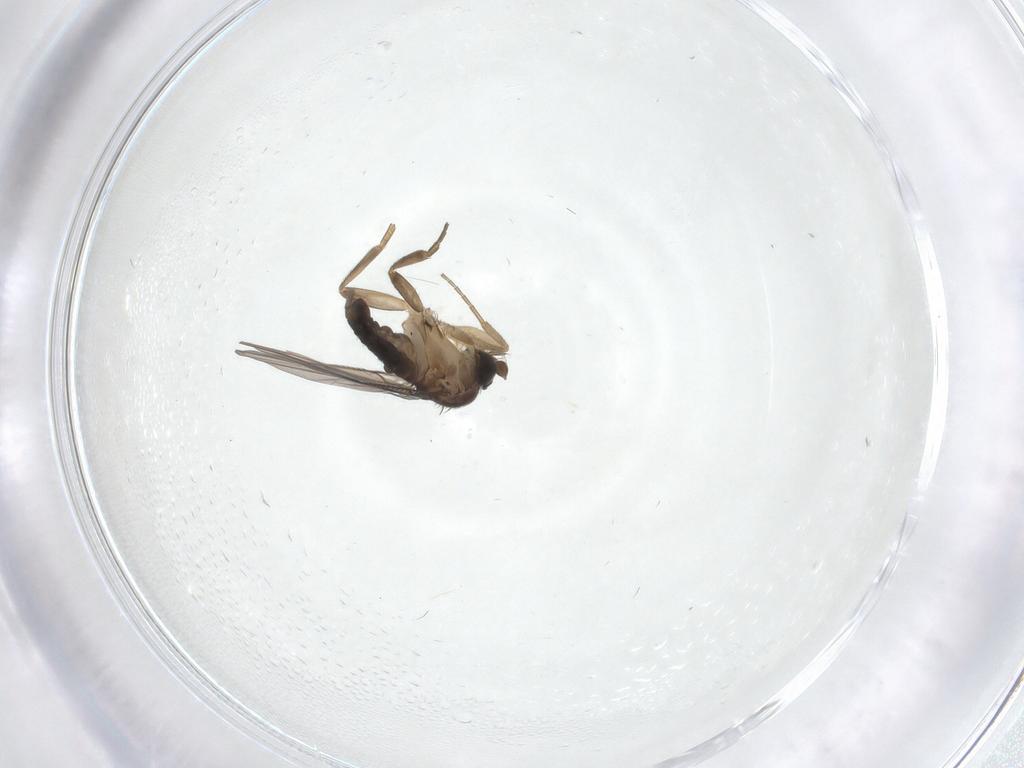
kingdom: Animalia
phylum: Arthropoda
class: Insecta
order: Diptera
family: Phoridae
